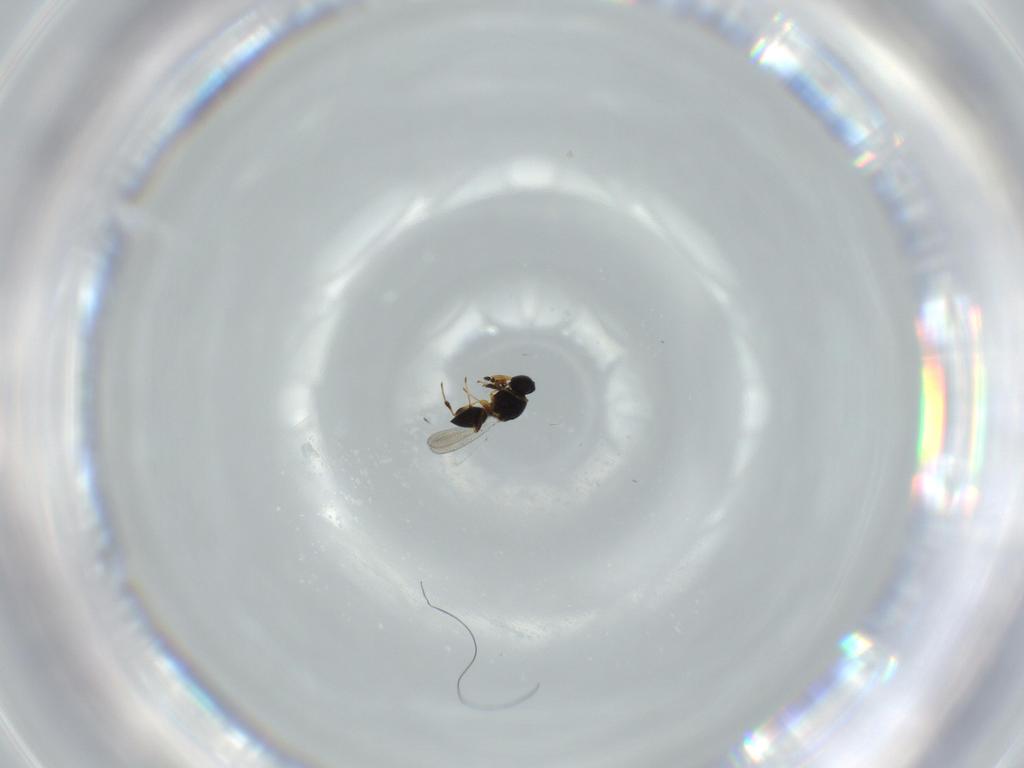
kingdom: Animalia
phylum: Arthropoda
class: Insecta
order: Hymenoptera
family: Platygastridae
